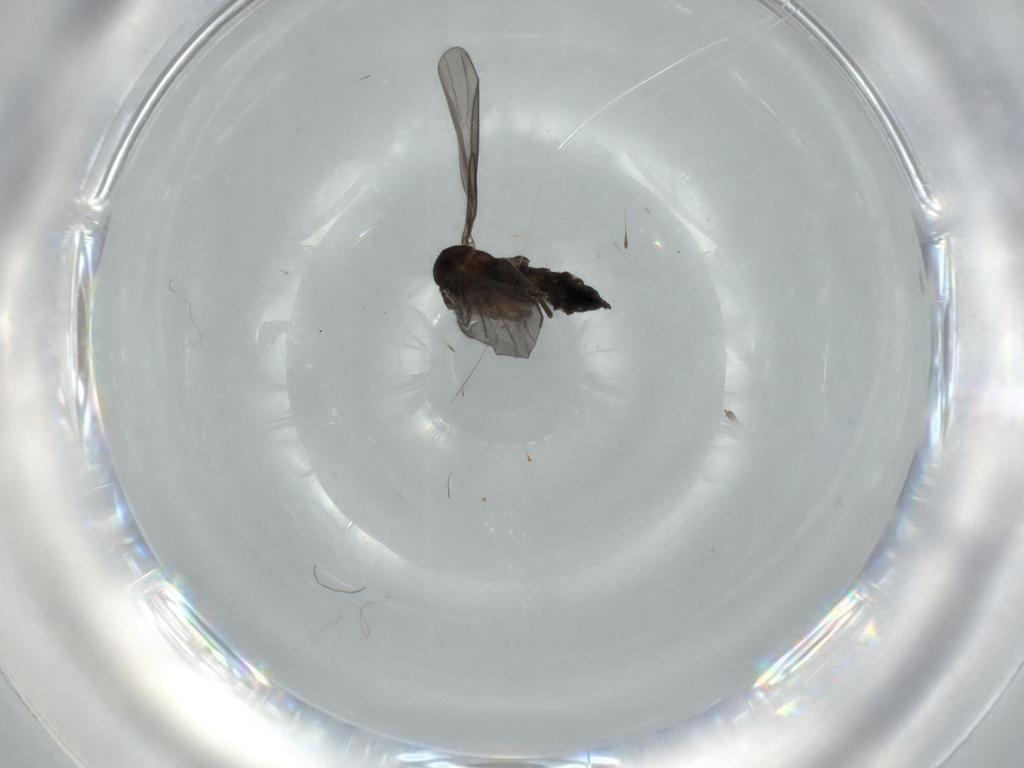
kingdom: Animalia
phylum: Arthropoda
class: Insecta
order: Diptera
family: Sciaridae
